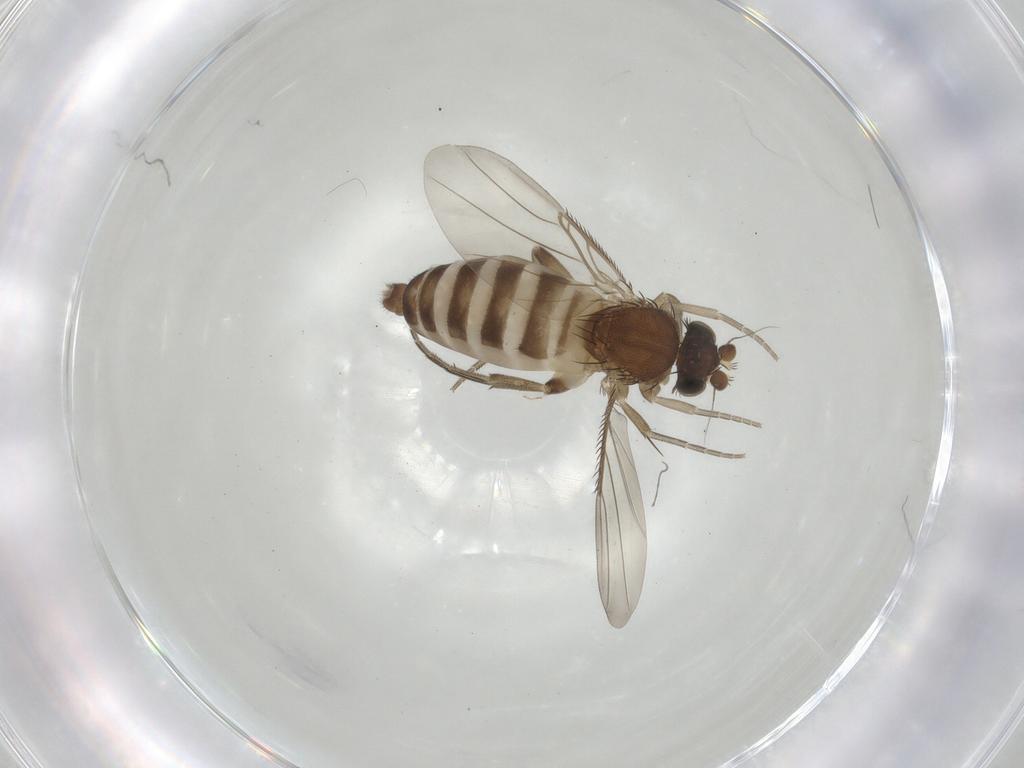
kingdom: Animalia
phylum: Arthropoda
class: Insecta
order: Diptera
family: Phoridae
